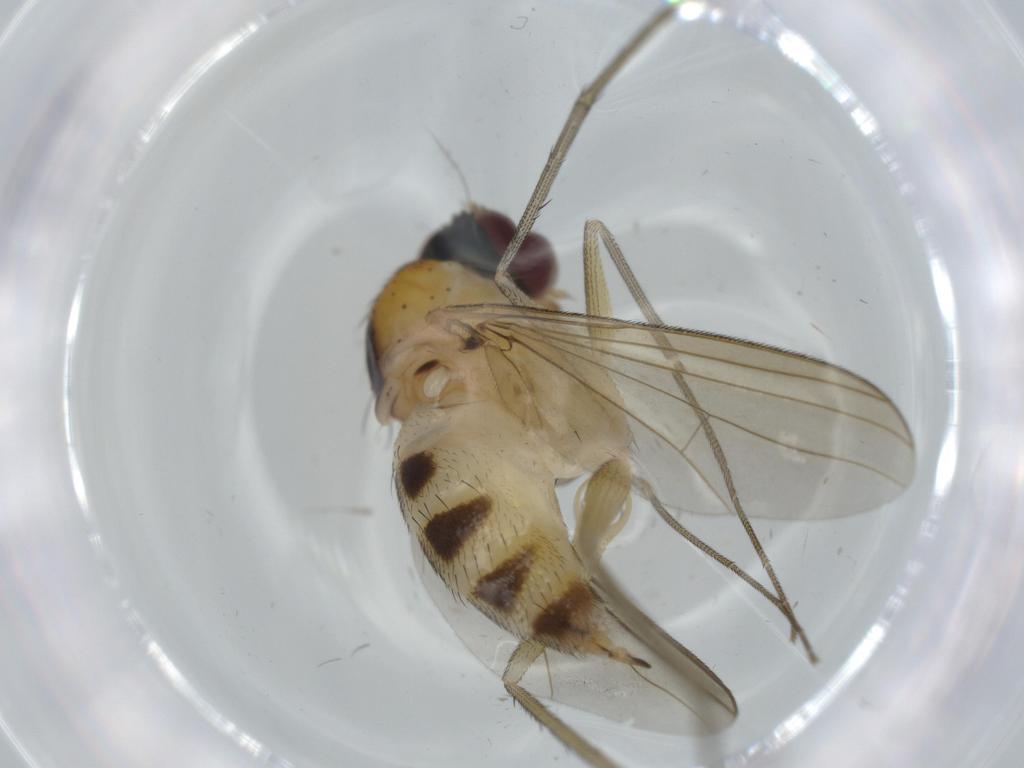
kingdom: Animalia
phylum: Arthropoda
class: Insecta
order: Diptera
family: Dolichopodidae
